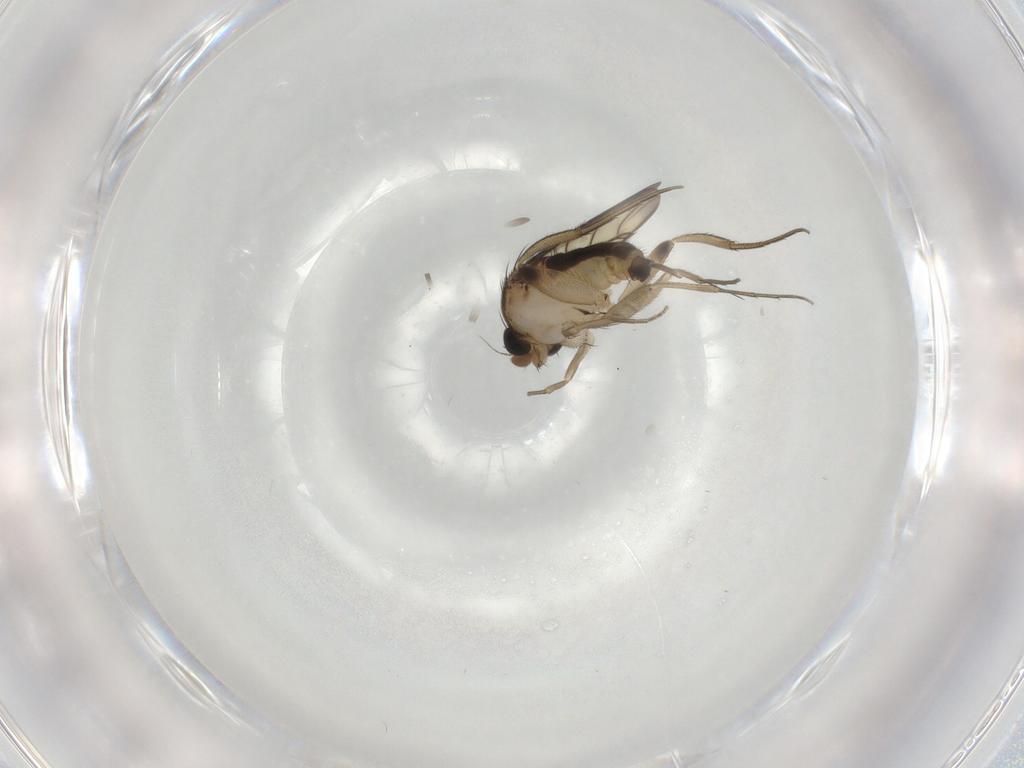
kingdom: Animalia
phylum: Arthropoda
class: Insecta
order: Diptera
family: Phoridae
